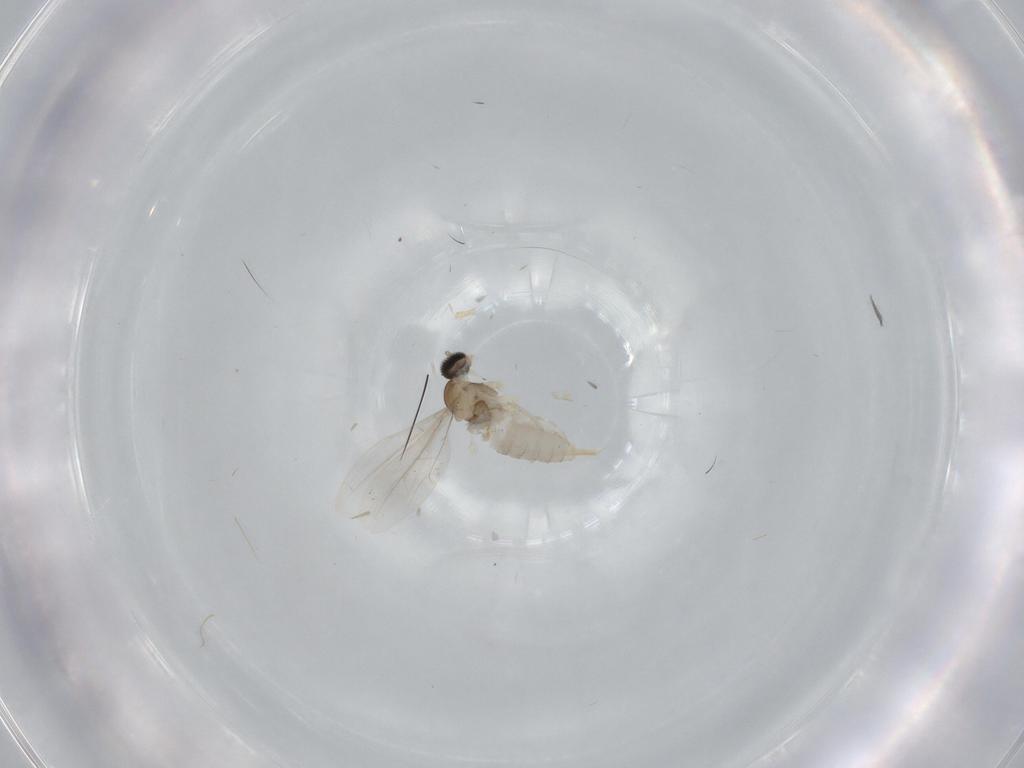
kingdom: Animalia
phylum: Arthropoda
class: Insecta
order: Diptera
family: Cecidomyiidae
